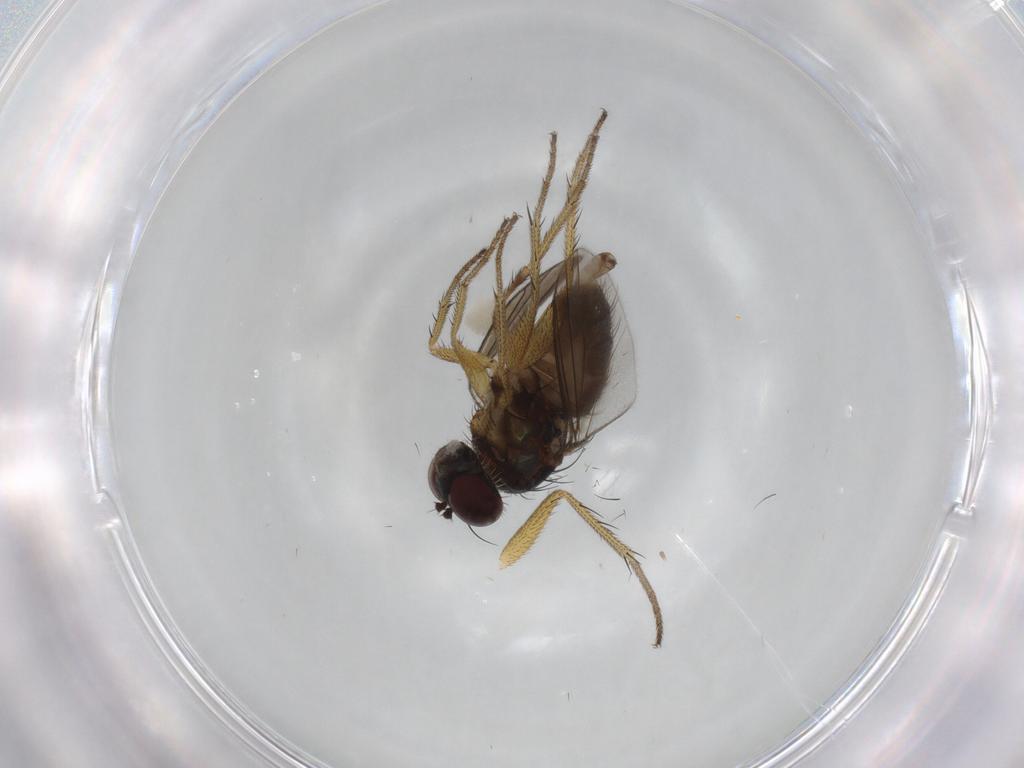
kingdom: Animalia
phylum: Arthropoda
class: Insecta
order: Diptera
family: Dolichopodidae
